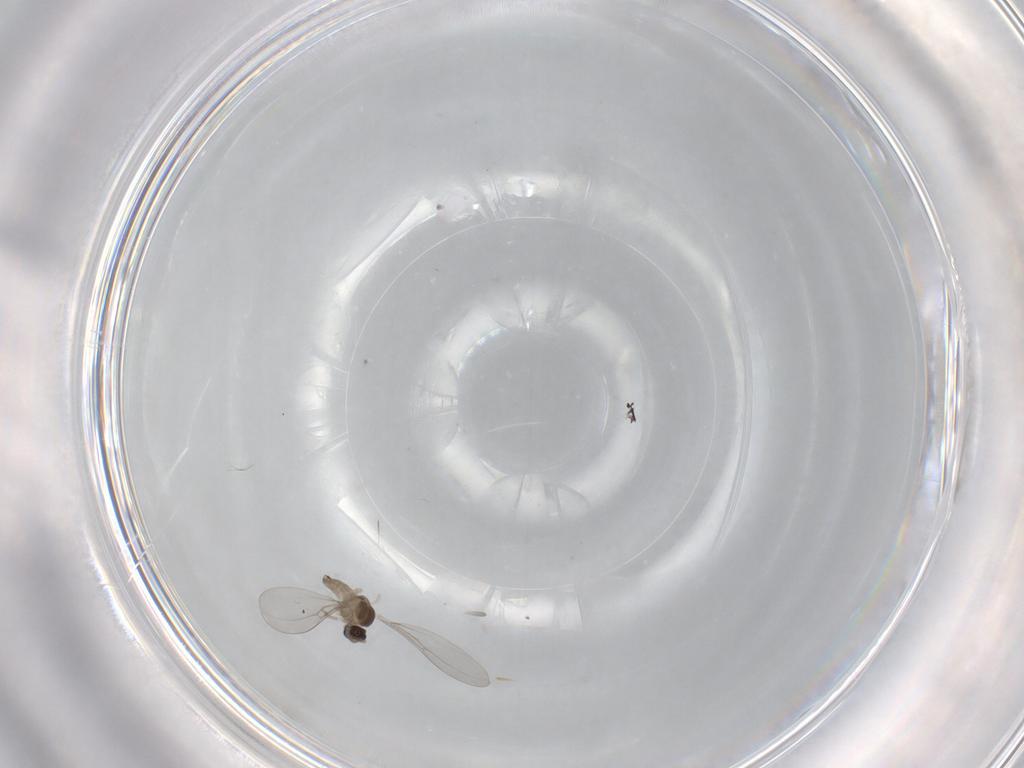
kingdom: Animalia
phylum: Arthropoda
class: Insecta
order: Diptera
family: Cecidomyiidae
